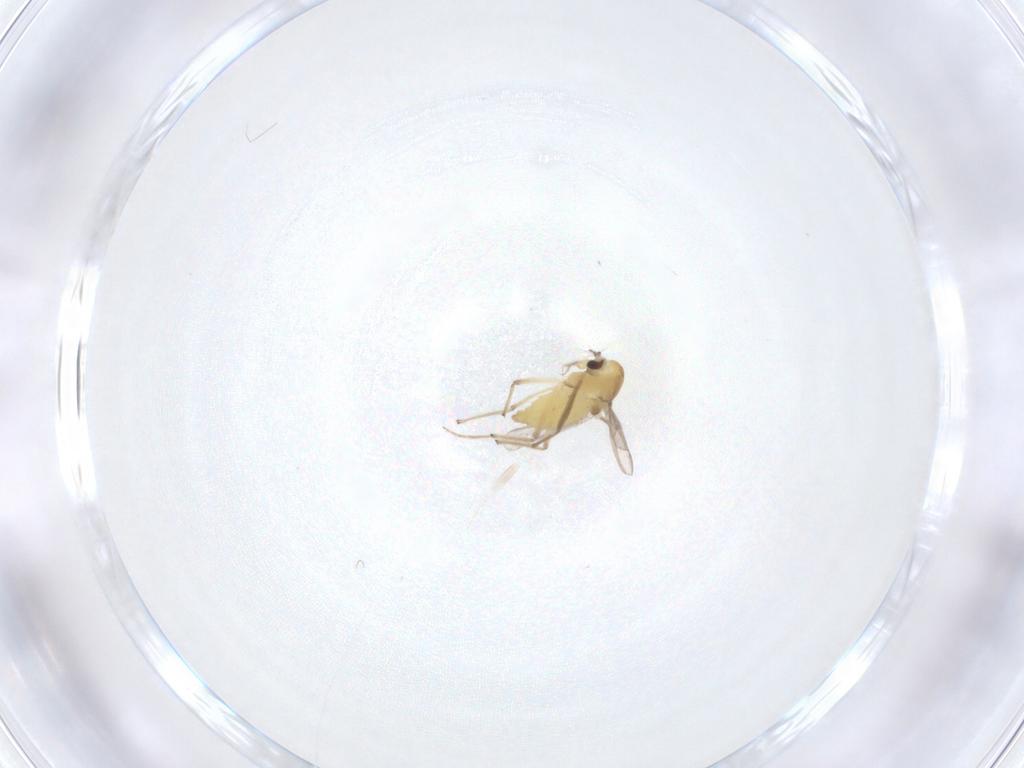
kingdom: Animalia
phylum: Arthropoda
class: Insecta
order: Diptera
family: Chironomidae
